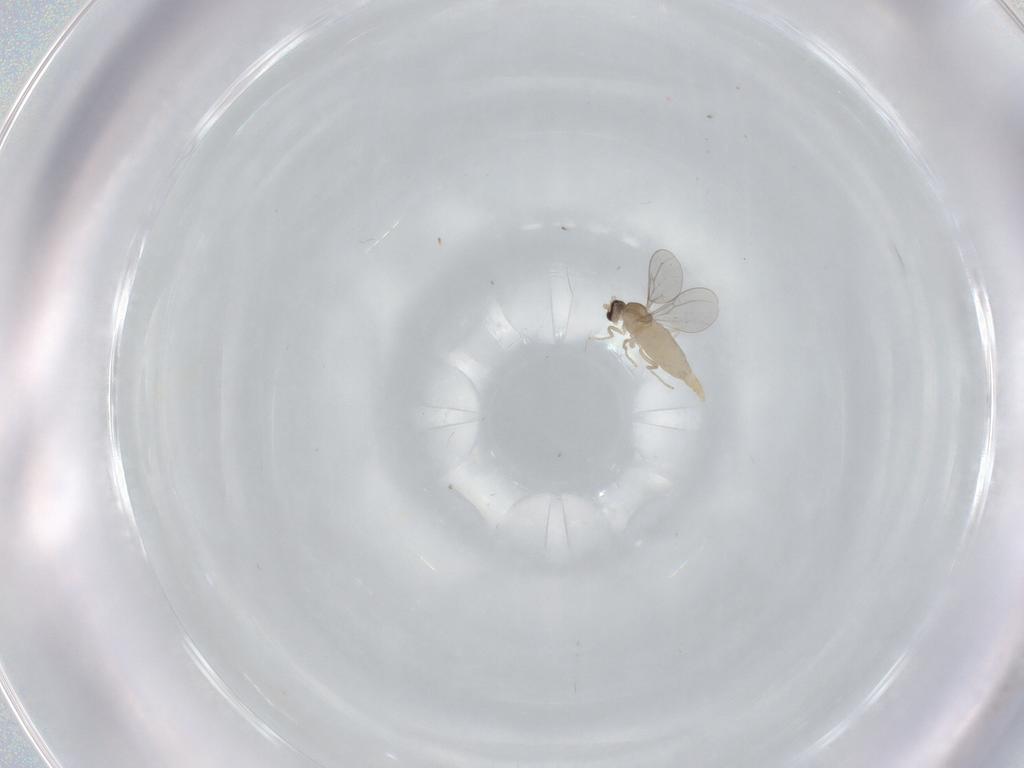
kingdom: Animalia
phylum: Arthropoda
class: Insecta
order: Diptera
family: Cecidomyiidae
